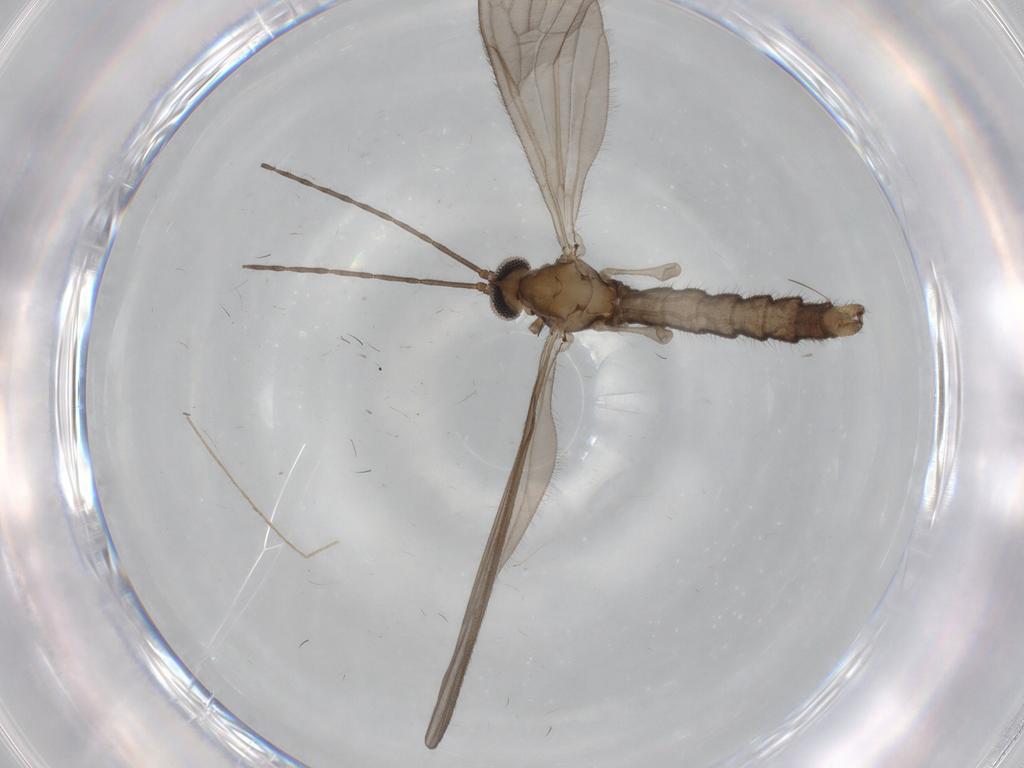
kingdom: Animalia
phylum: Arthropoda
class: Insecta
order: Diptera
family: Limoniidae
